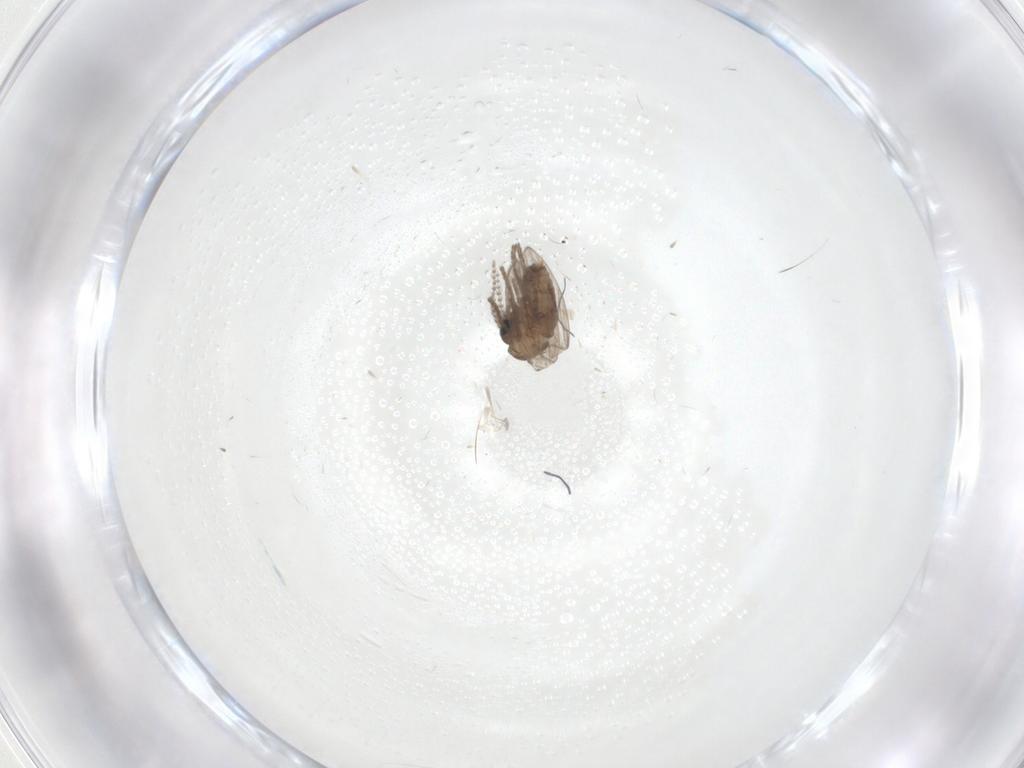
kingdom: Animalia
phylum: Arthropoda
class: Insecta
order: Diptera
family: Psychodidae
